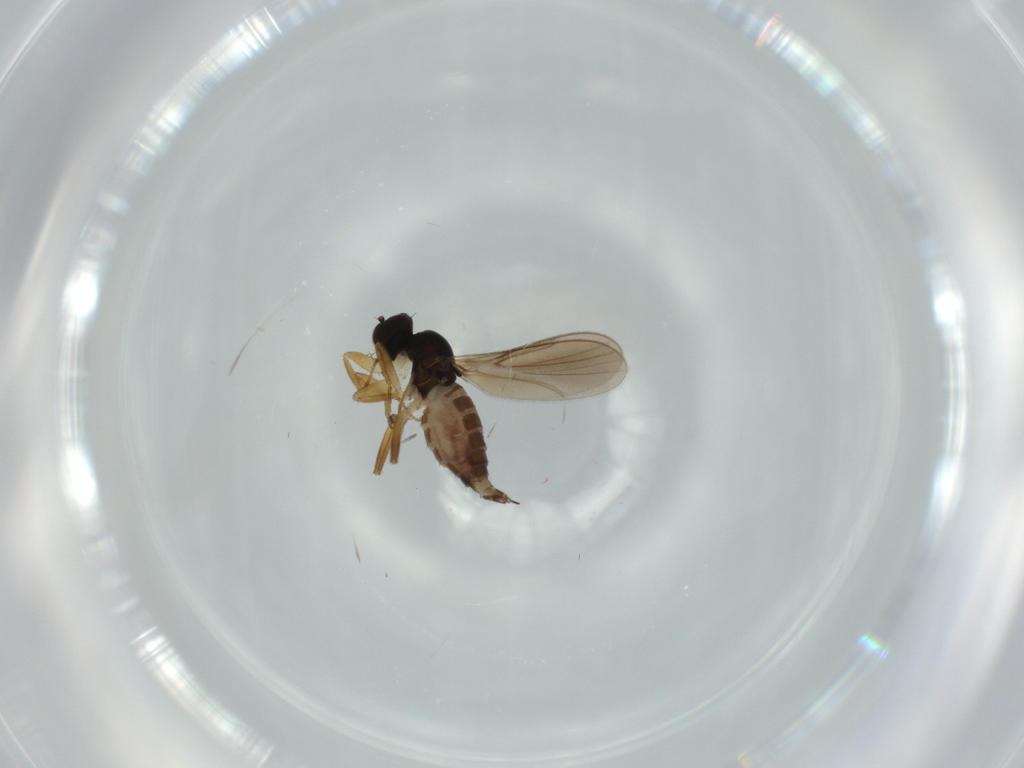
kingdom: Animalia
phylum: Arthropoda
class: Insecta
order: Diptera
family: Hybotidae
